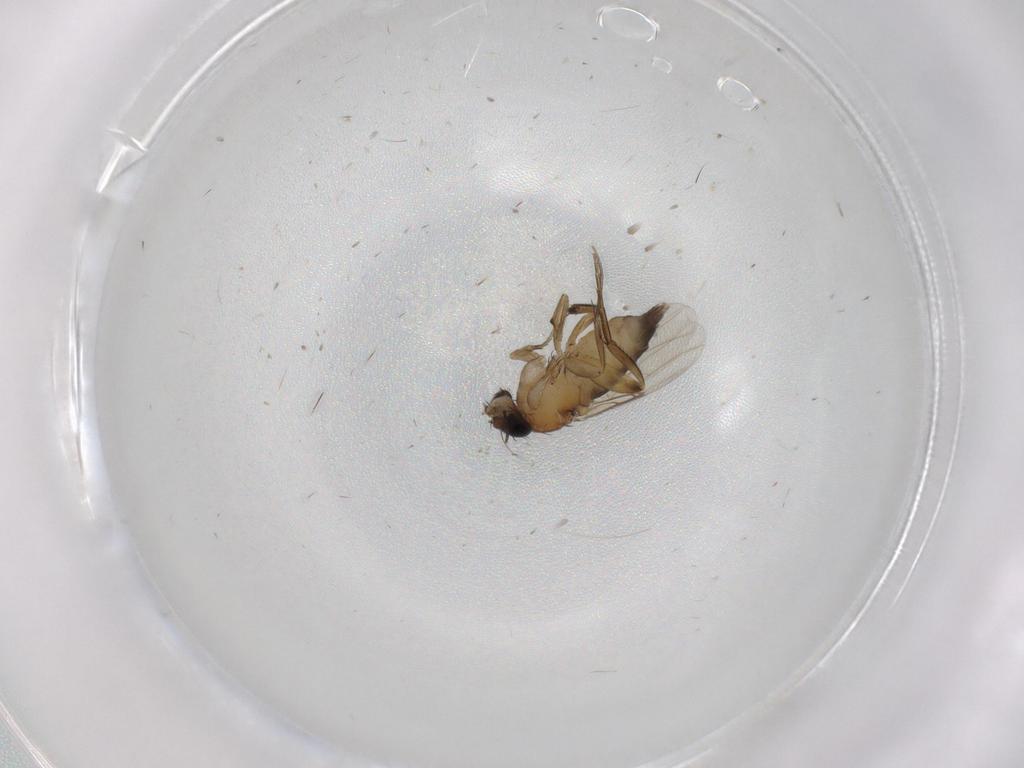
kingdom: Animalia
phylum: Arthropoda
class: Insecta
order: Diptera
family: Phoridae
